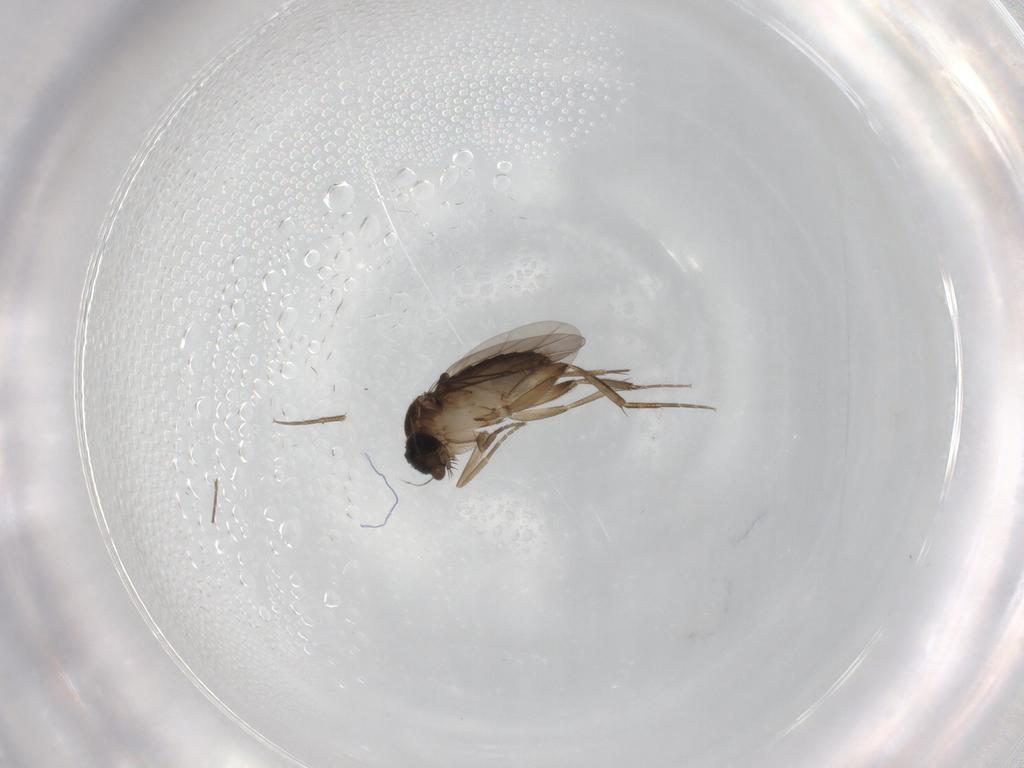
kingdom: Animalia
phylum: Arthropoda
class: Insecta
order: Diptera
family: Phoridae
